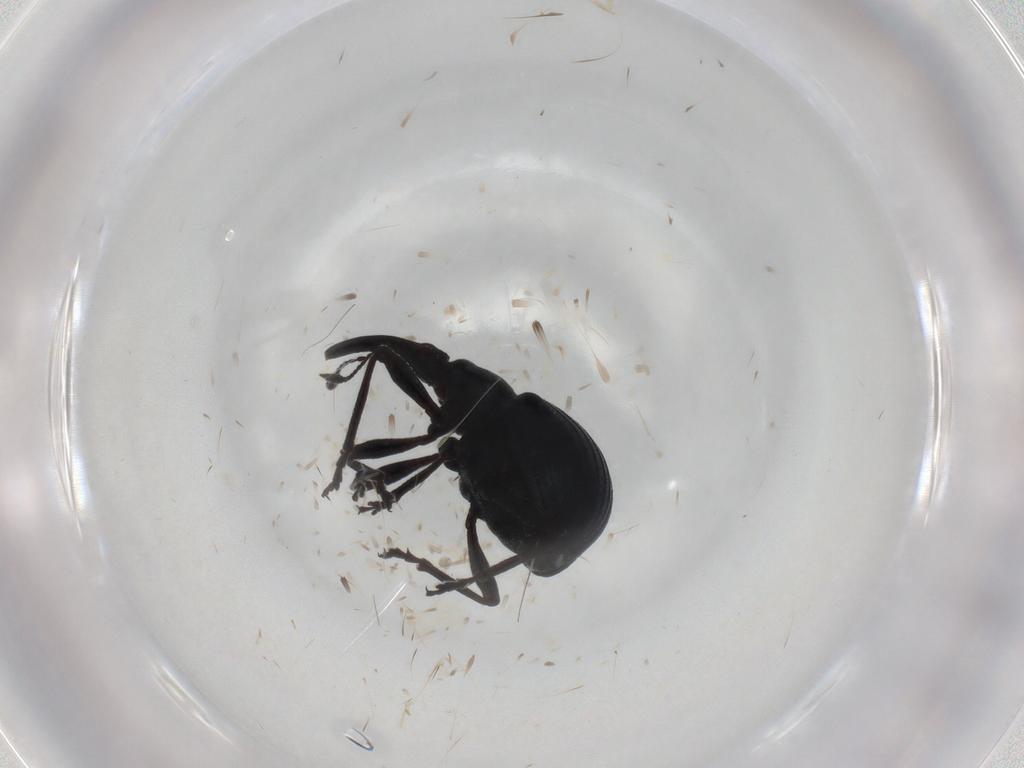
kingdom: Animalia
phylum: Arthropoda
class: Insecta
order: Coleoptera
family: Brentidae
